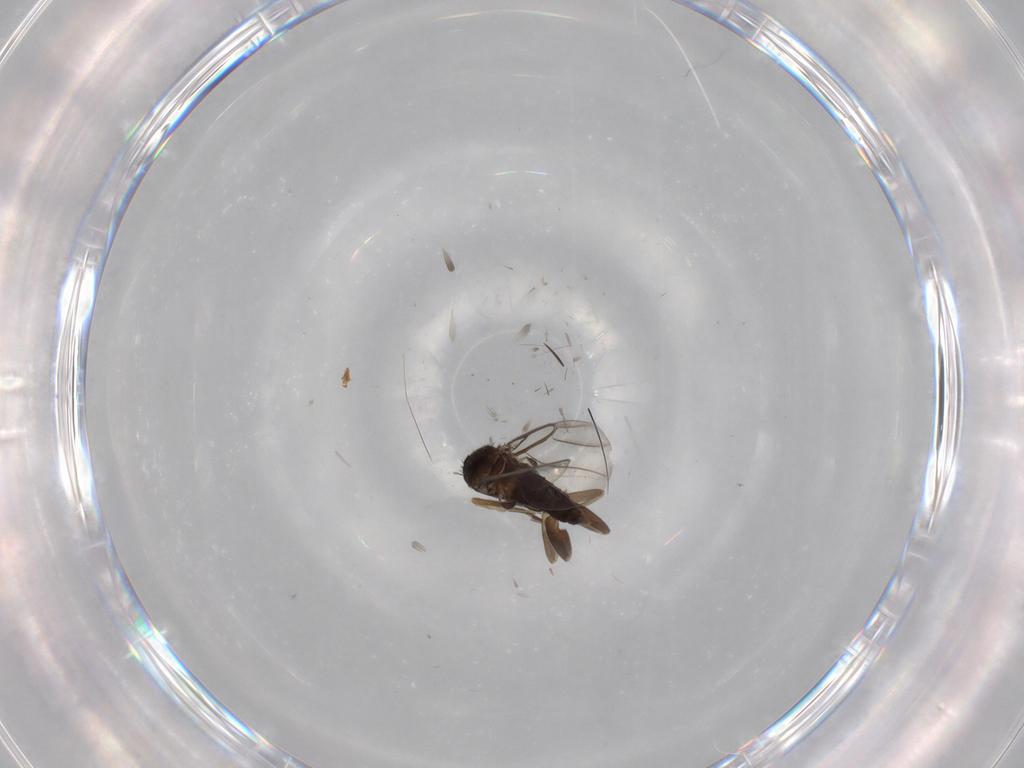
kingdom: Animalia
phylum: Arthropoda
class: Insecta
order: Diptera
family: Phoridae
